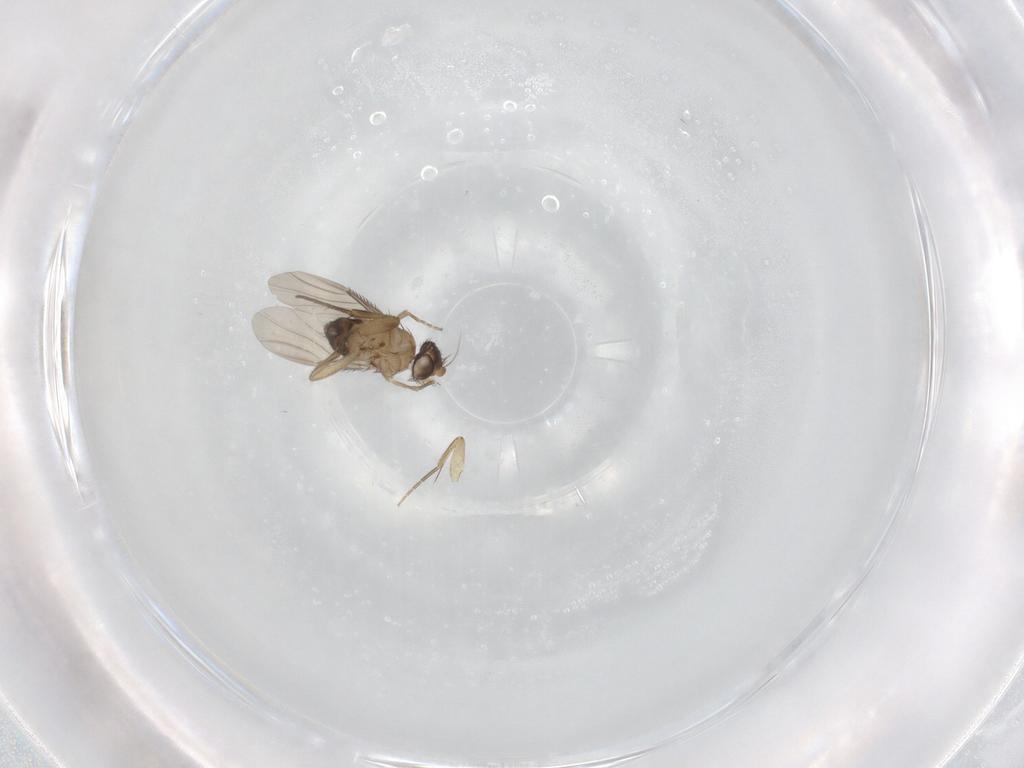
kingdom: Animalia
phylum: Arthropoda
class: Insecta
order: Diptera
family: Phoridae
